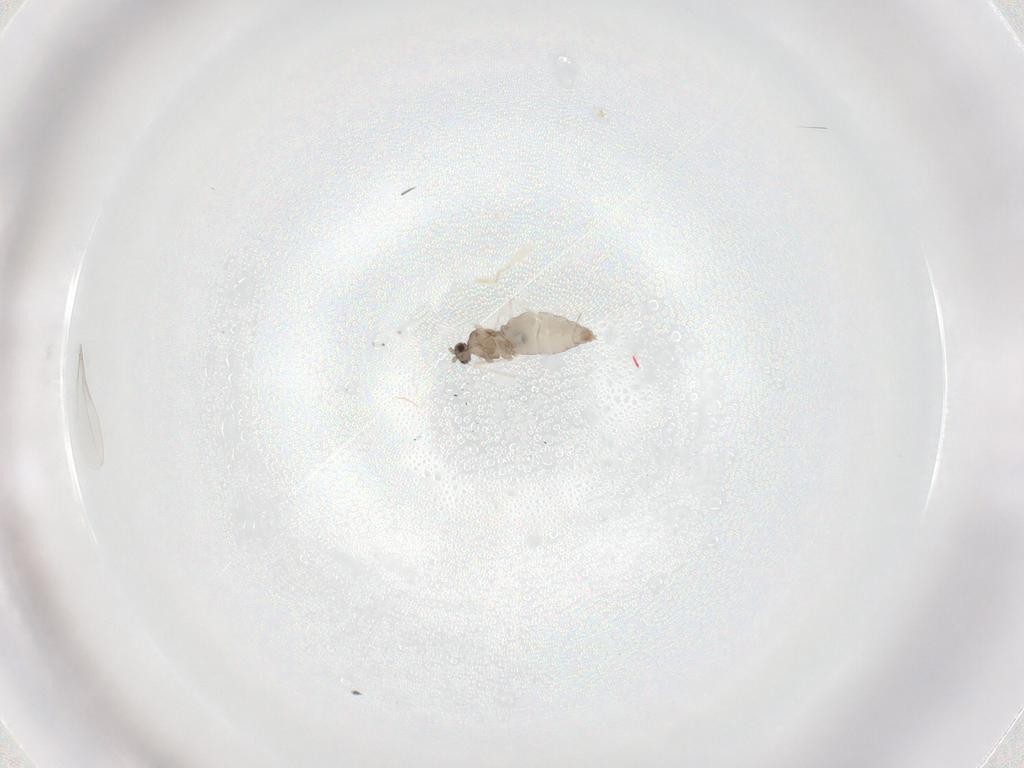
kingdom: Animalia
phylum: Arthropoda
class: Insecta
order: Diptera
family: Cecidomyiidae
